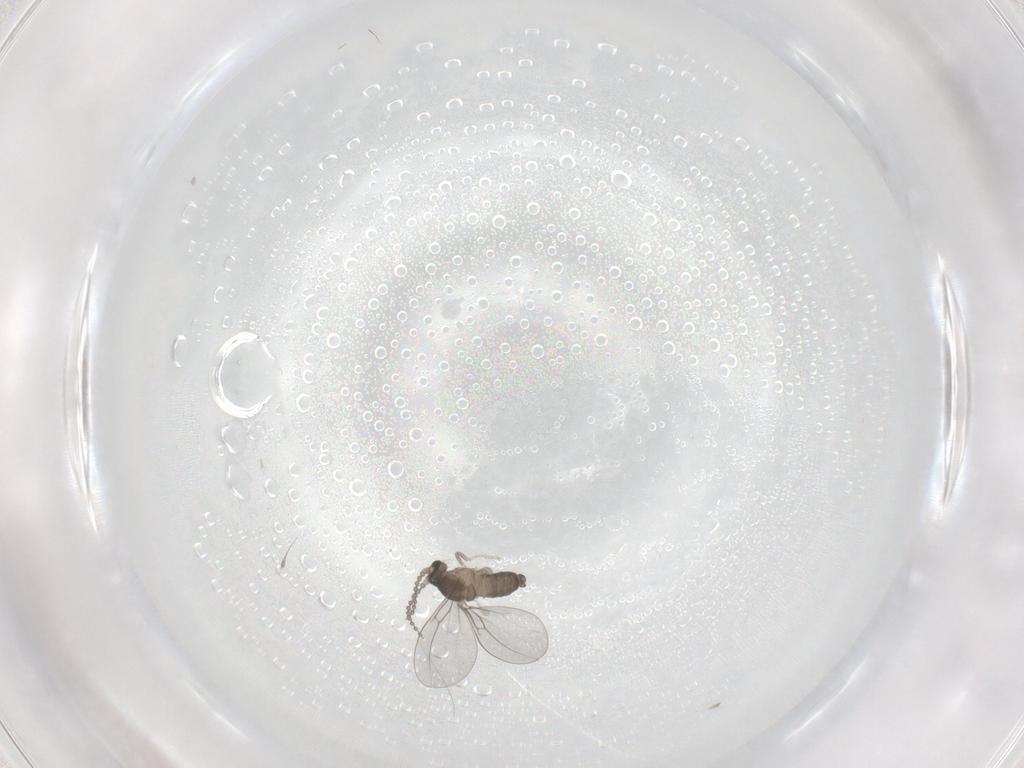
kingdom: Animalia
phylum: Arthropoda
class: Insecta
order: Diptera
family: Cecidomyiidae
